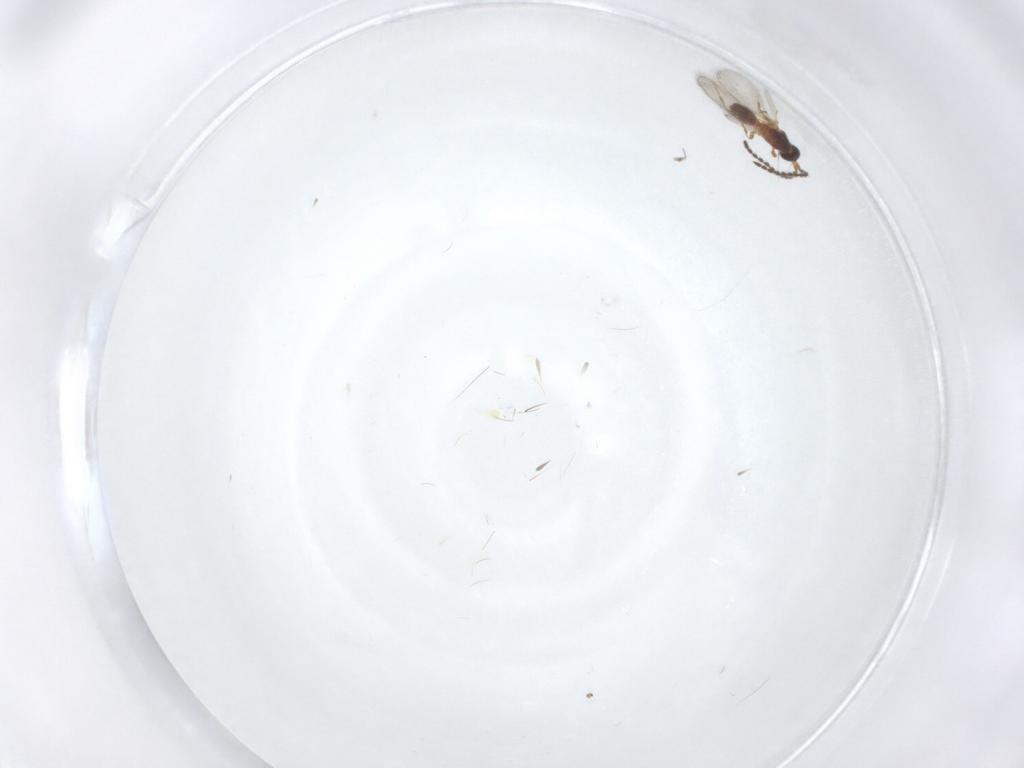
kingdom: Animalia
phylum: Arthropoda
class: Insecta
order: Hymenoptera
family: Diapriidae
